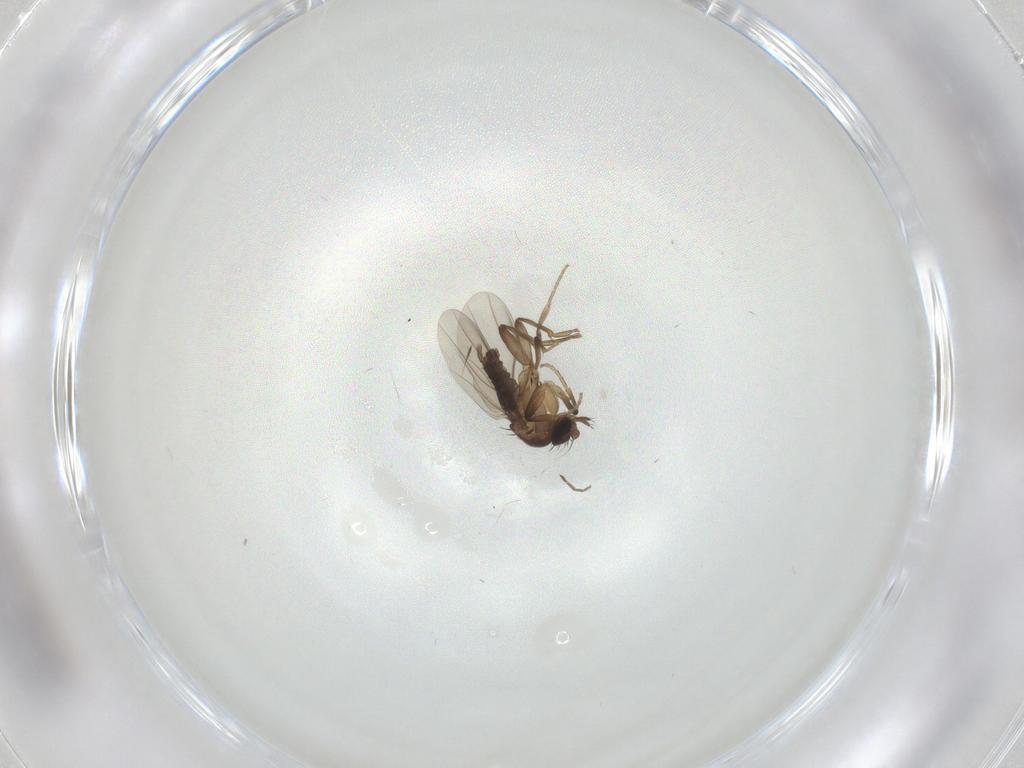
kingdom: Animalia
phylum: Arthropoda
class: Insecta
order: Diptera
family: Phoridae
